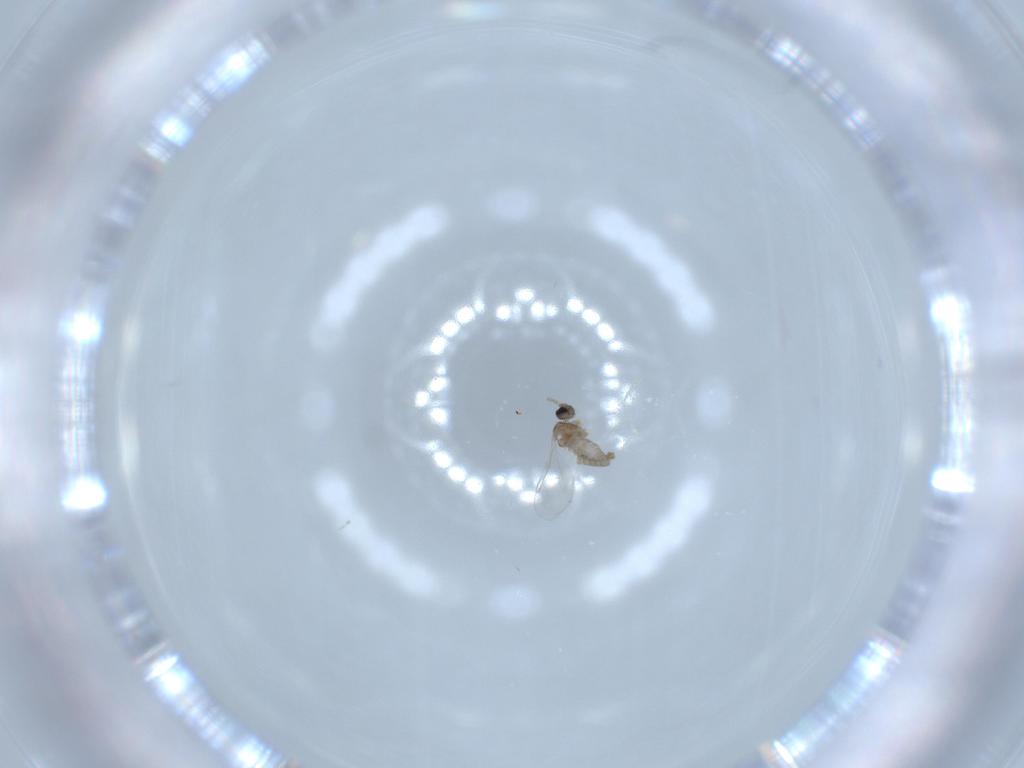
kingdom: Animalia
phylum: Arthropoda
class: Insecta
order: Diptera
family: Cecidomyiidae
